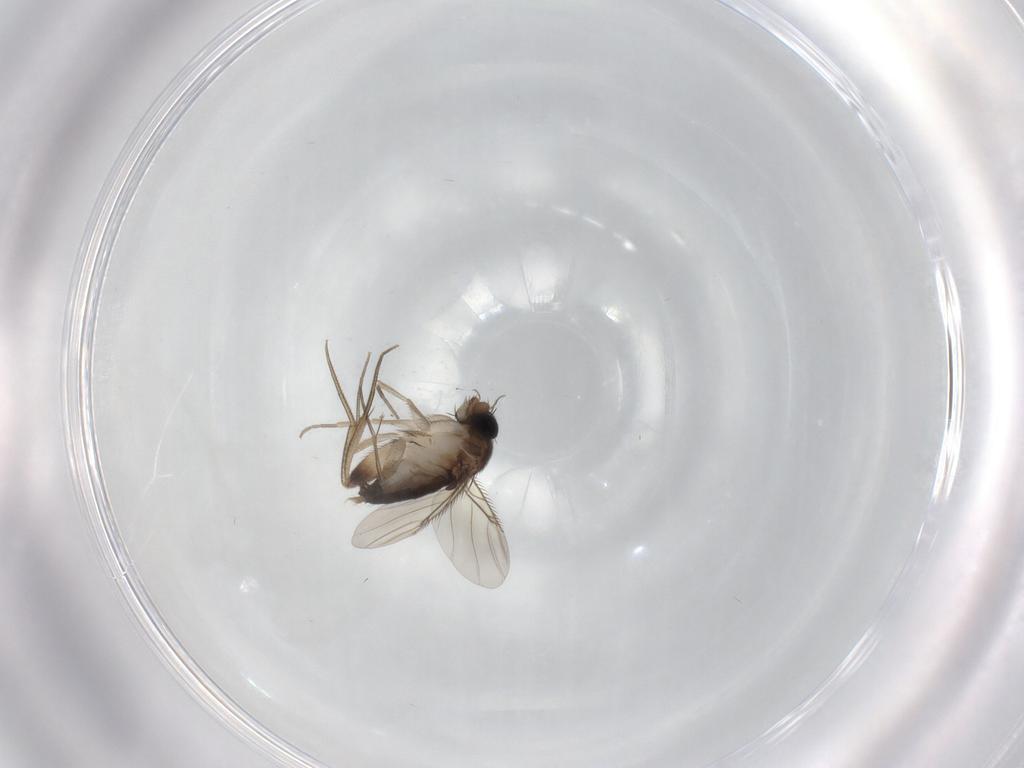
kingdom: Animalia
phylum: Arthropoda
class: Insecta
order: Diptera
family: Phoridae
